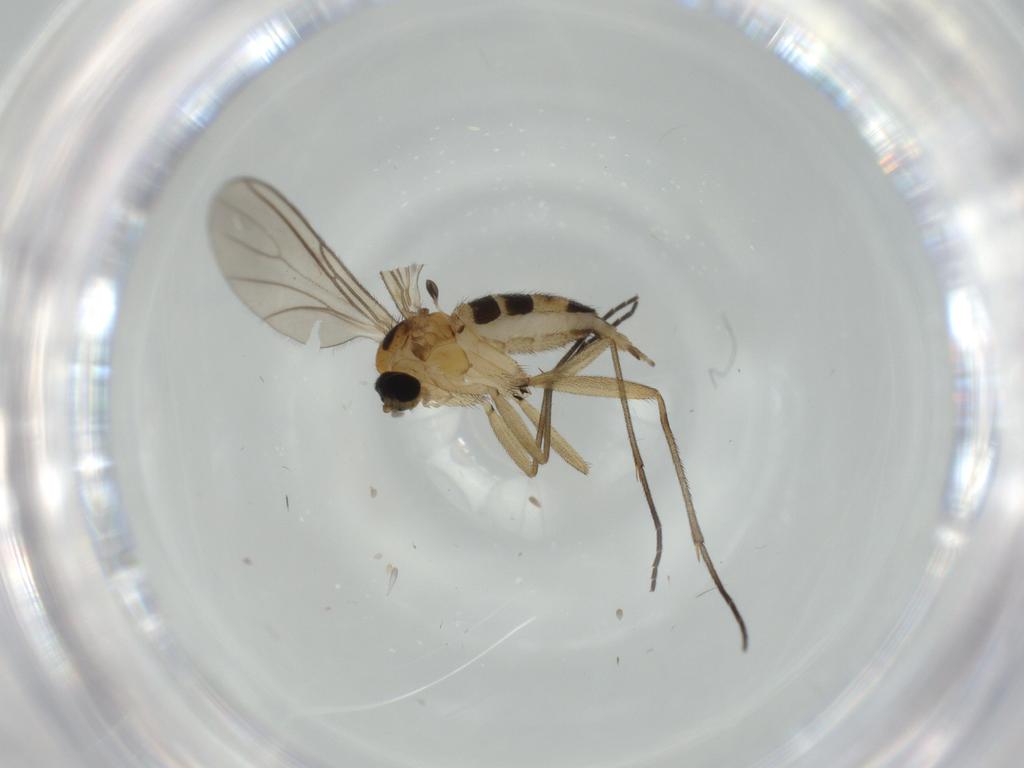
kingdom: Animalia
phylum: Arthropoda
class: Insecta
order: Diptera
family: Sciaridae
